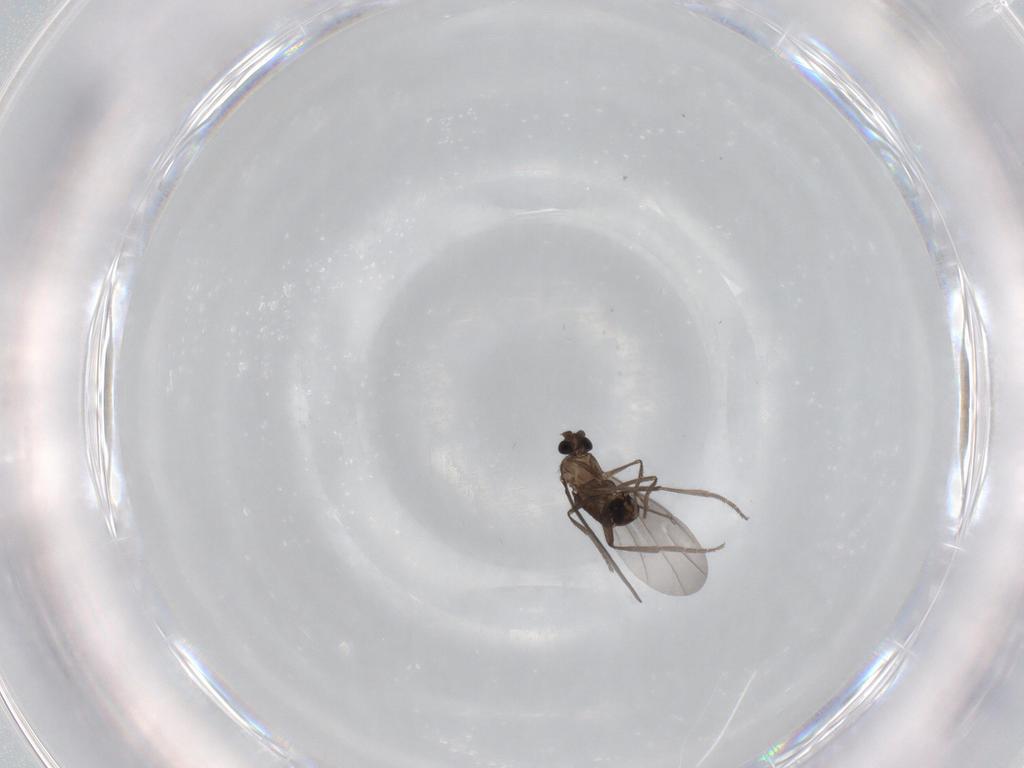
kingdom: Animalia
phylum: Arthropoda
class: Insecta
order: Diptera
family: Phoridae
